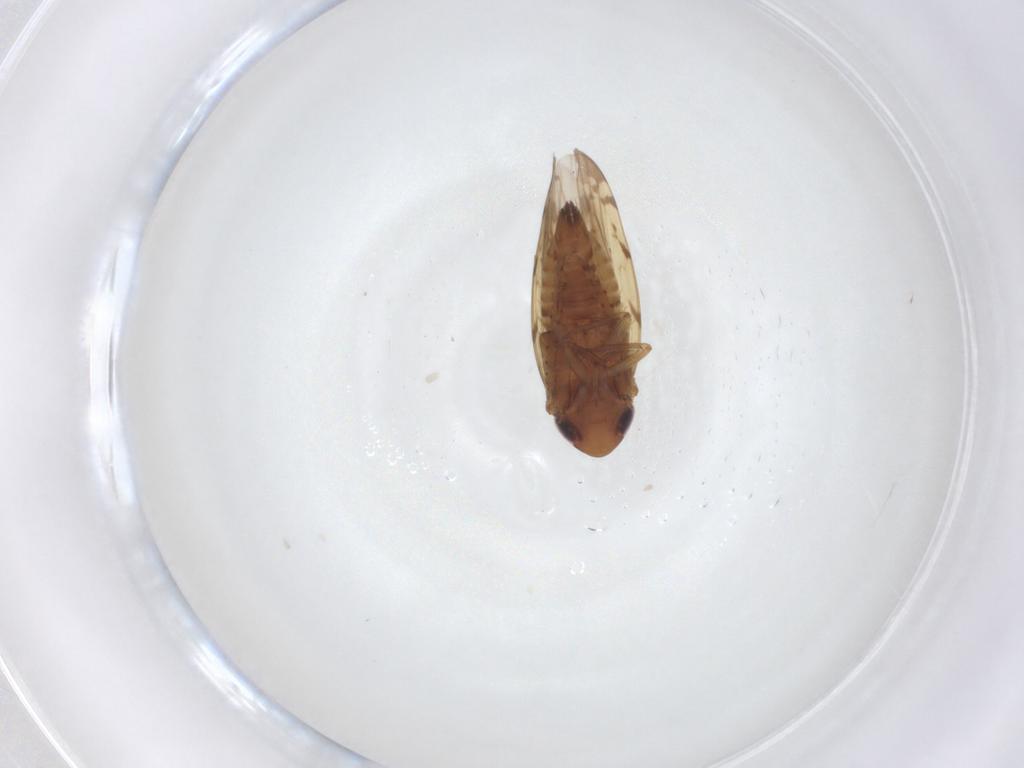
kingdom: Animalia
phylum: Arthropoda
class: Insecta
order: Hemiptera
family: Cicadellidae
